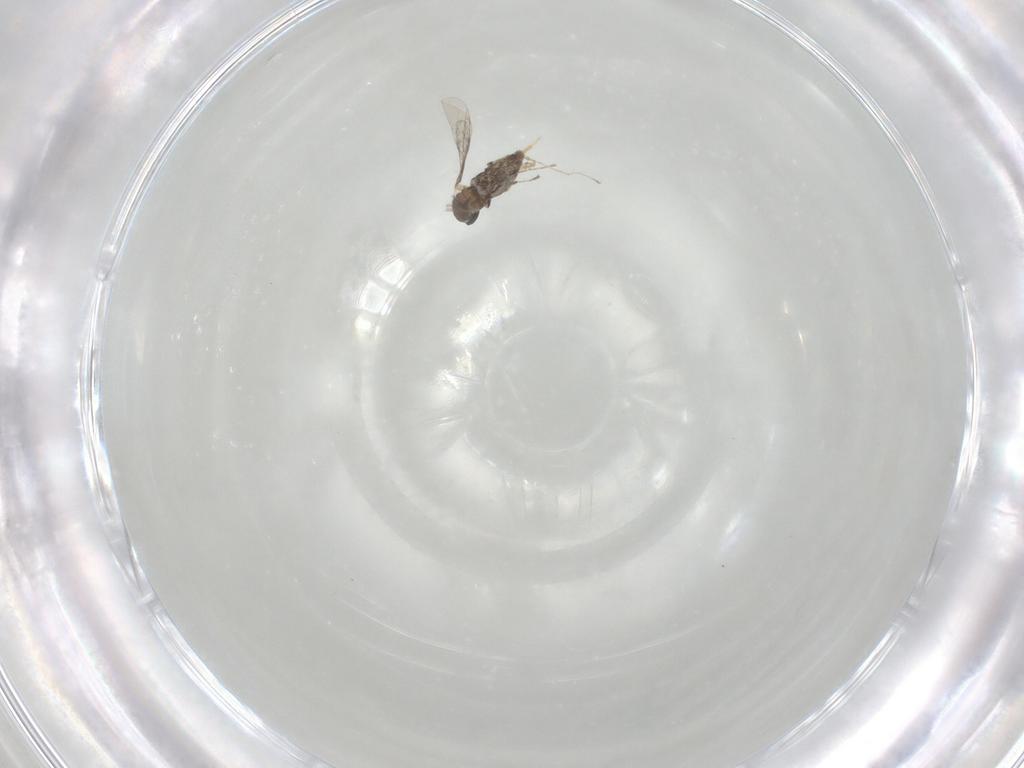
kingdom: Animalia
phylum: Arthropoda
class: Insecta
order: Diptera
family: Cecidomyiidae
